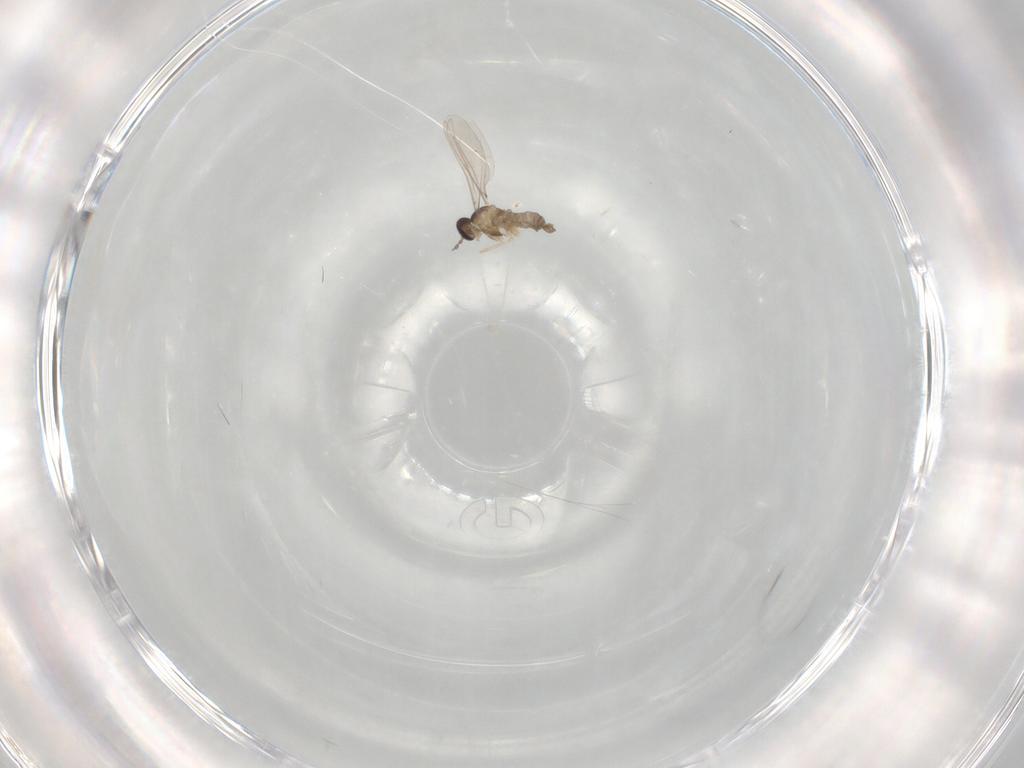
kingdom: Animalia
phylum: Arthropoda
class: Insecta
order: Diptera
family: Cecidomyiidae
